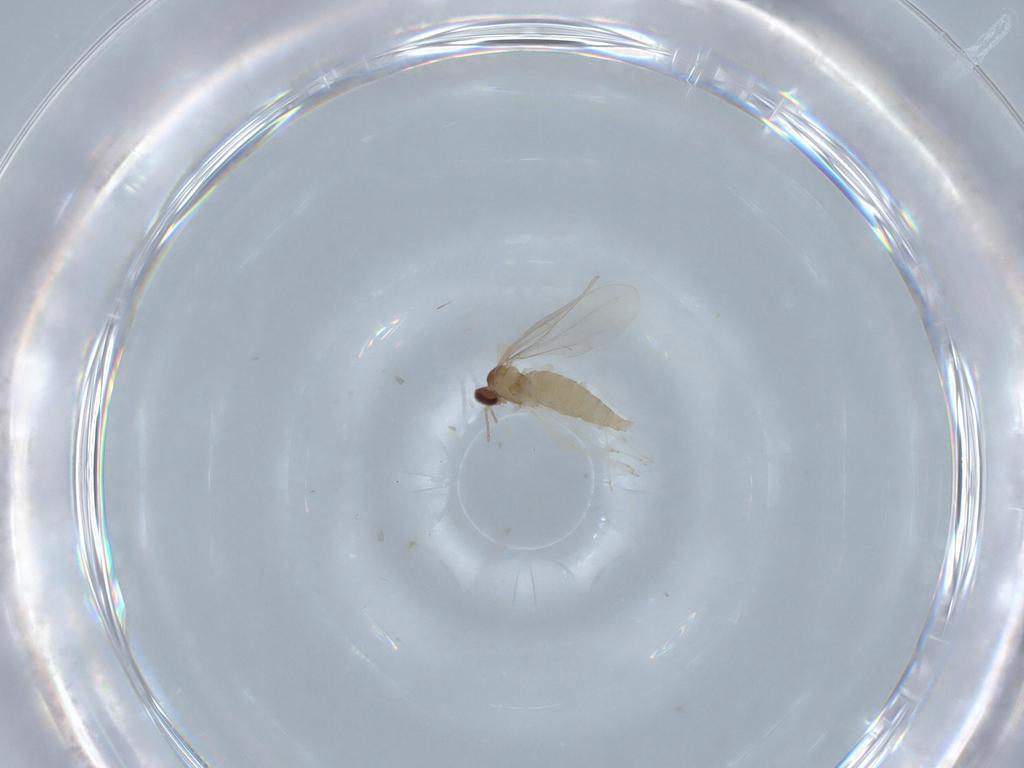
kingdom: Animalia
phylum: Arthropoda
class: Insecta
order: Diptera
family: Cecidomyiidae
